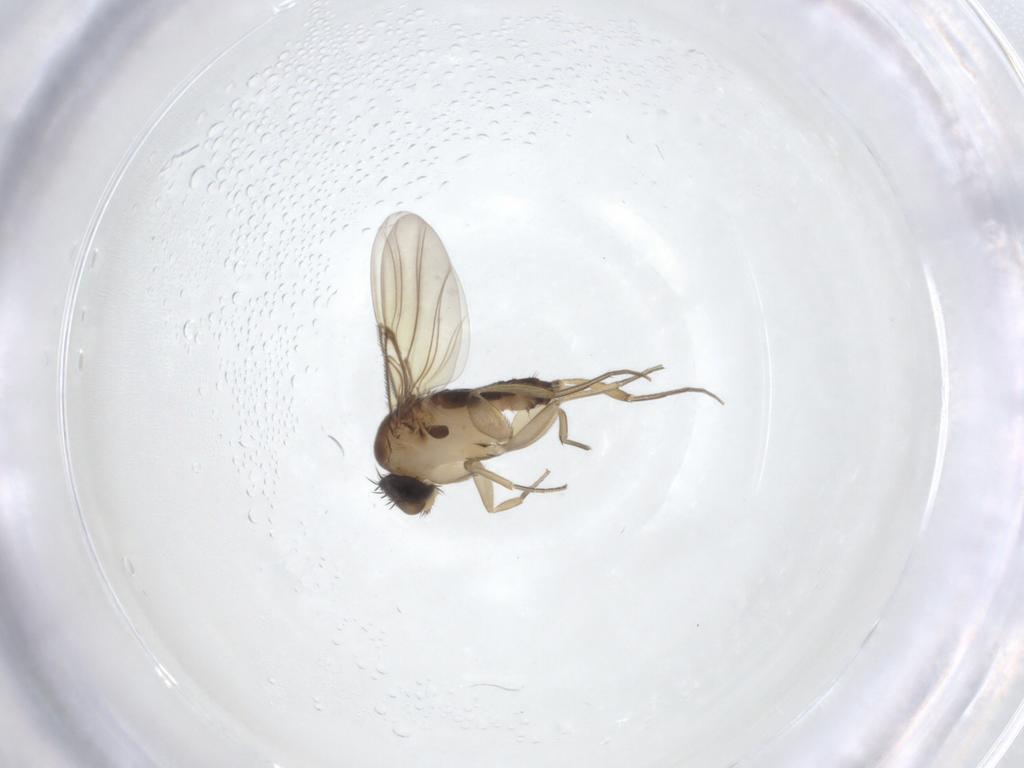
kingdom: Animalia
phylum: Arthropoda
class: Insecta
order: Diptera
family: Phoridae
